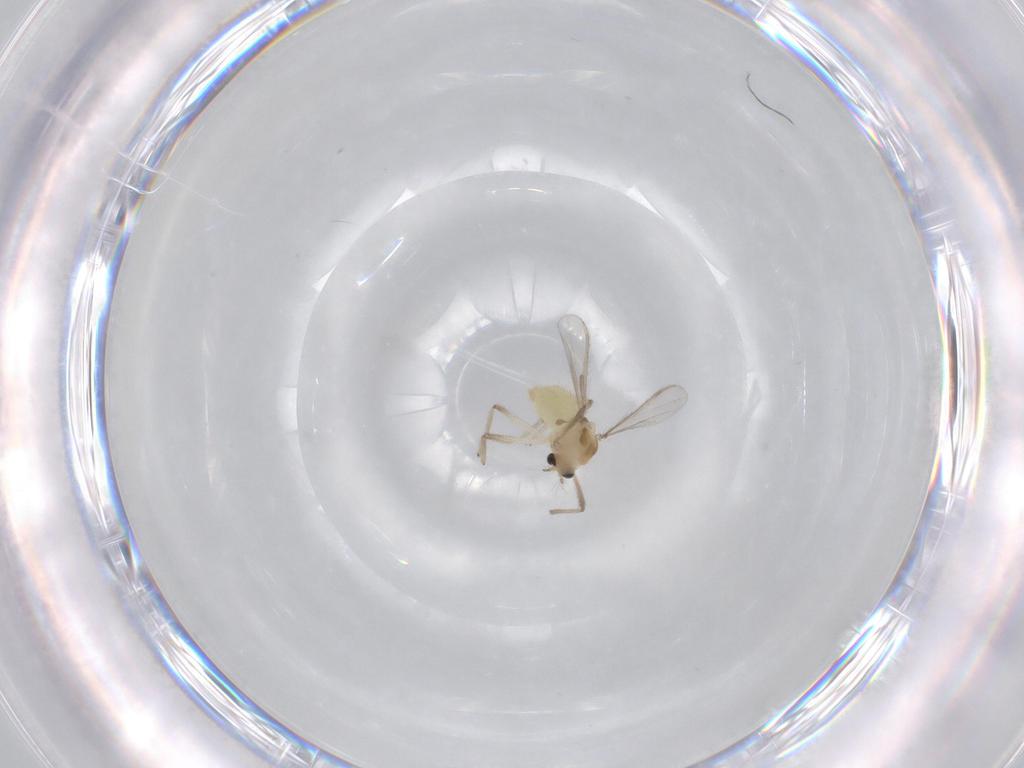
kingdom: Animalia
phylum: Arthropoda
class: Insecta
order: Diptera
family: Chironomidae
